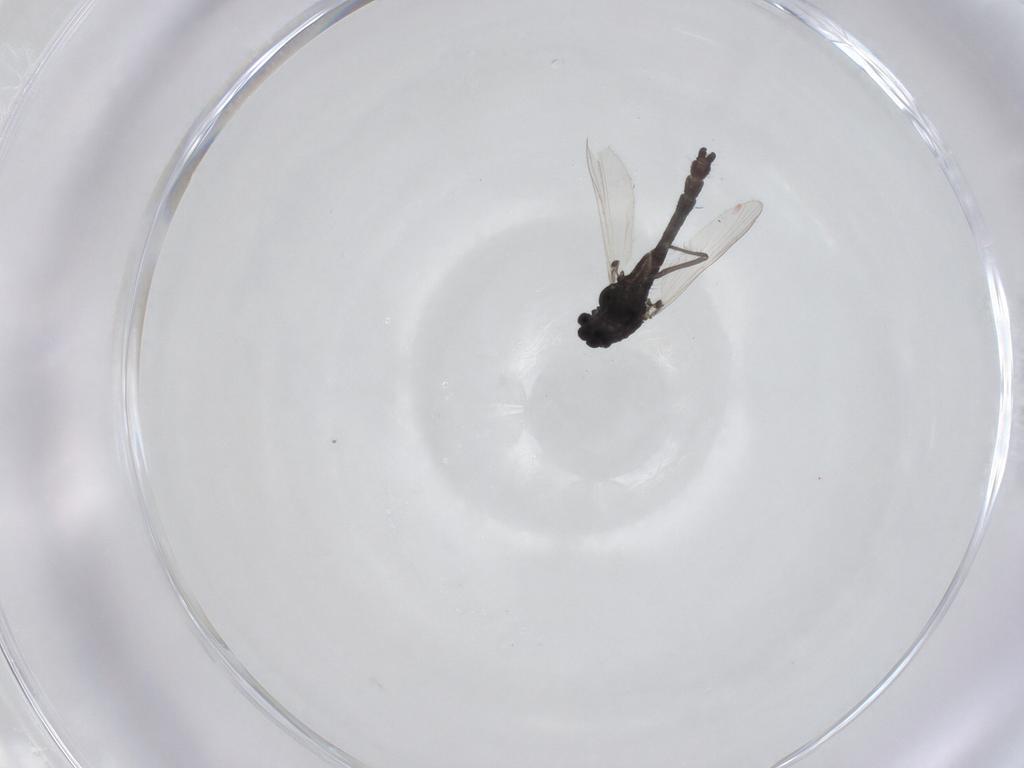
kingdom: Animalia
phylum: Arthropoda
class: Insecta
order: Diptera
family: Chironomidae
